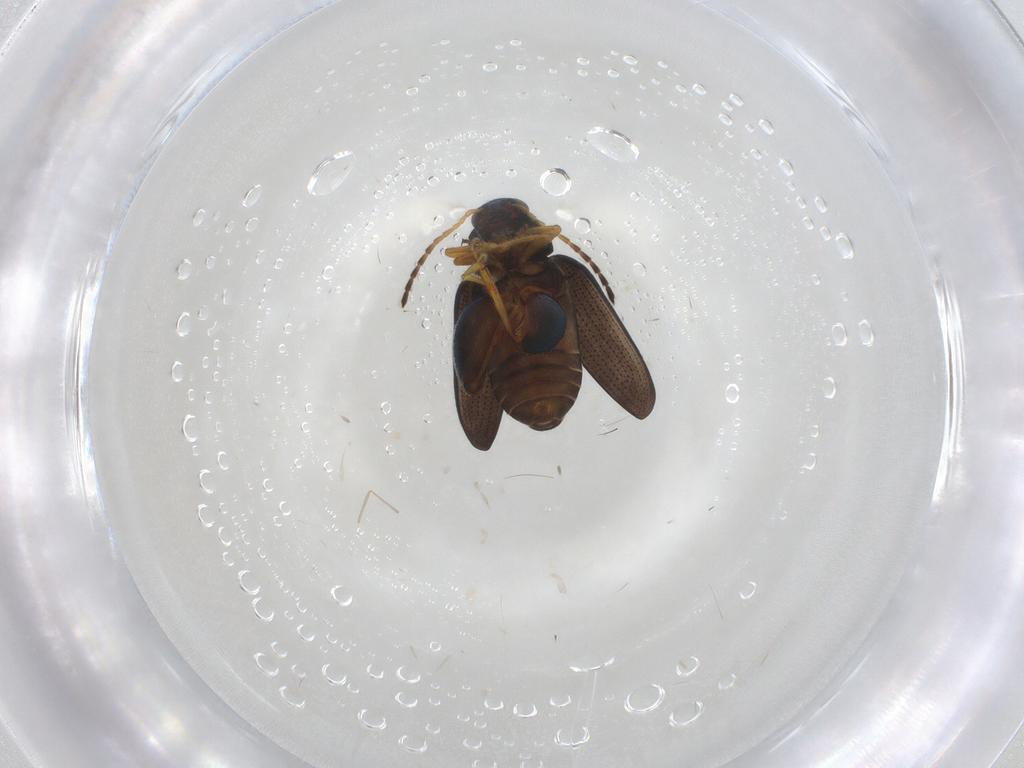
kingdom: Animalia
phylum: Arthropoda
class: Insecta
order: Coleoptera
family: Chrysomelidae
